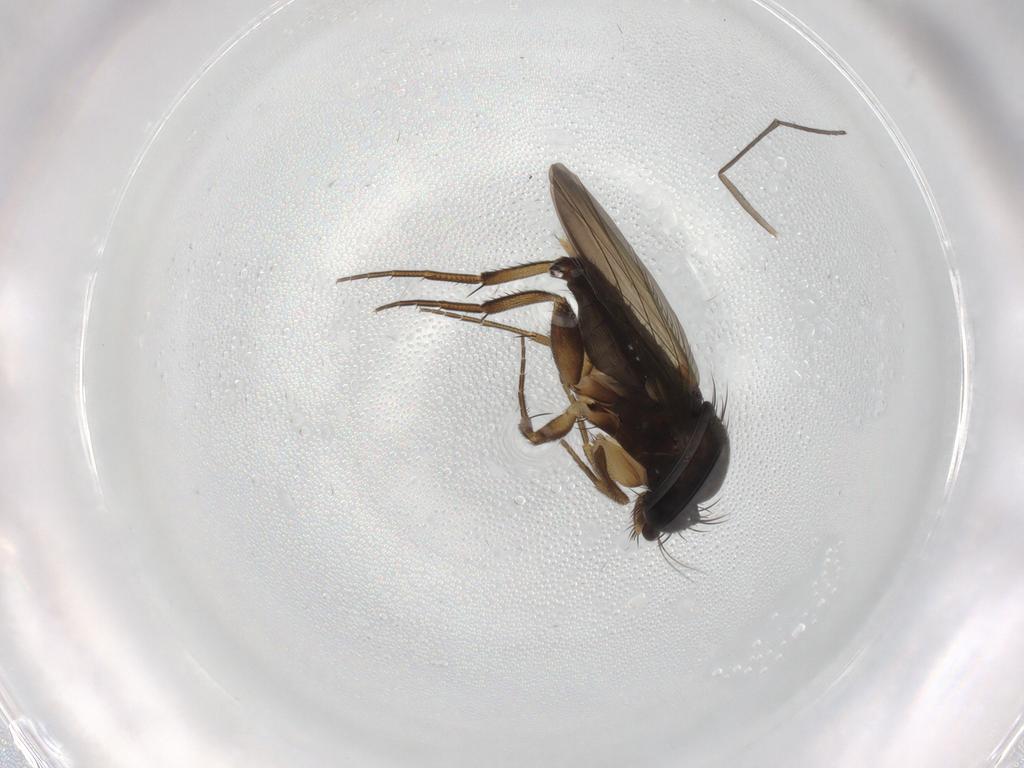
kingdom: Animalia
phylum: Arthropoda
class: Insecta
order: Diptera
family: Phoridae
